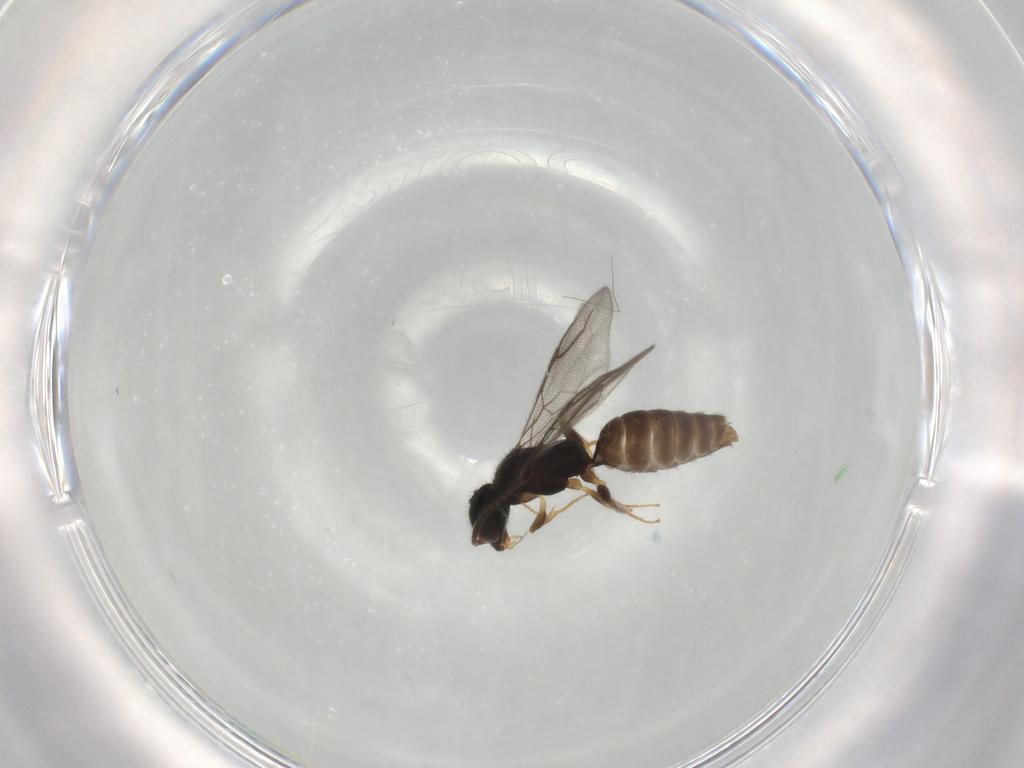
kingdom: Animalia
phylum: Arthropoda
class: Insecta
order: Hymenoptera
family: Bethylidae
